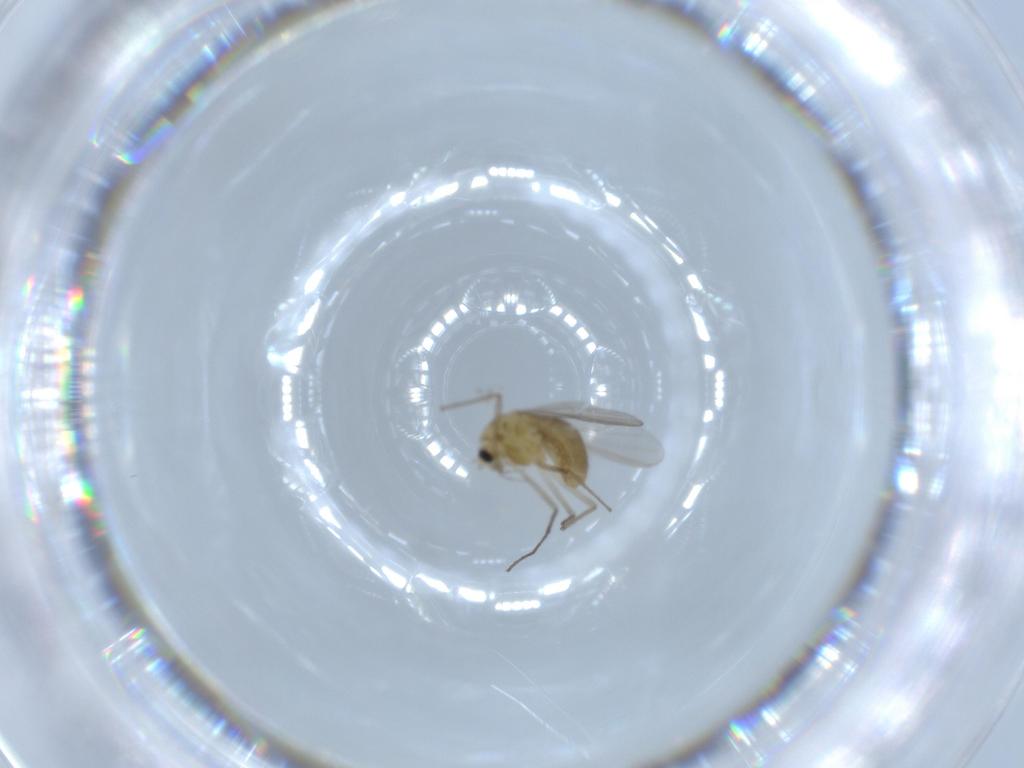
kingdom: Animalia
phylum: Arthropoda
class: Insecta
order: Diptera
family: Chironomidae
